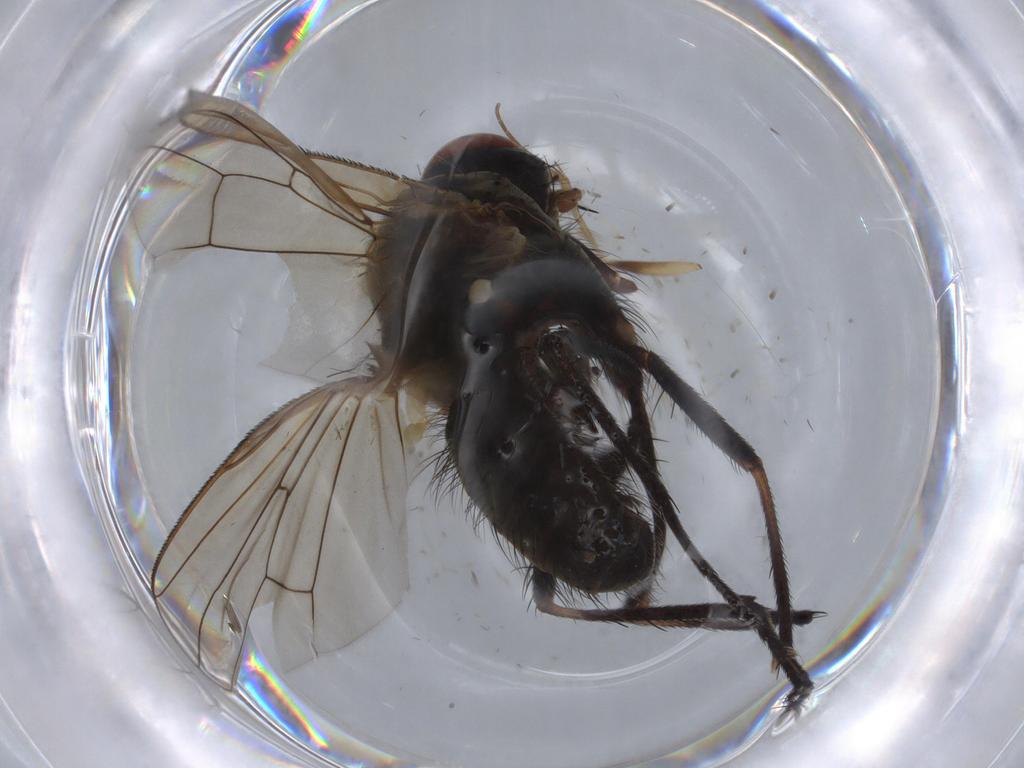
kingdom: Animalia
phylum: Arthropoda
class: Insecta
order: Diptera
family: Anthomyiidae
